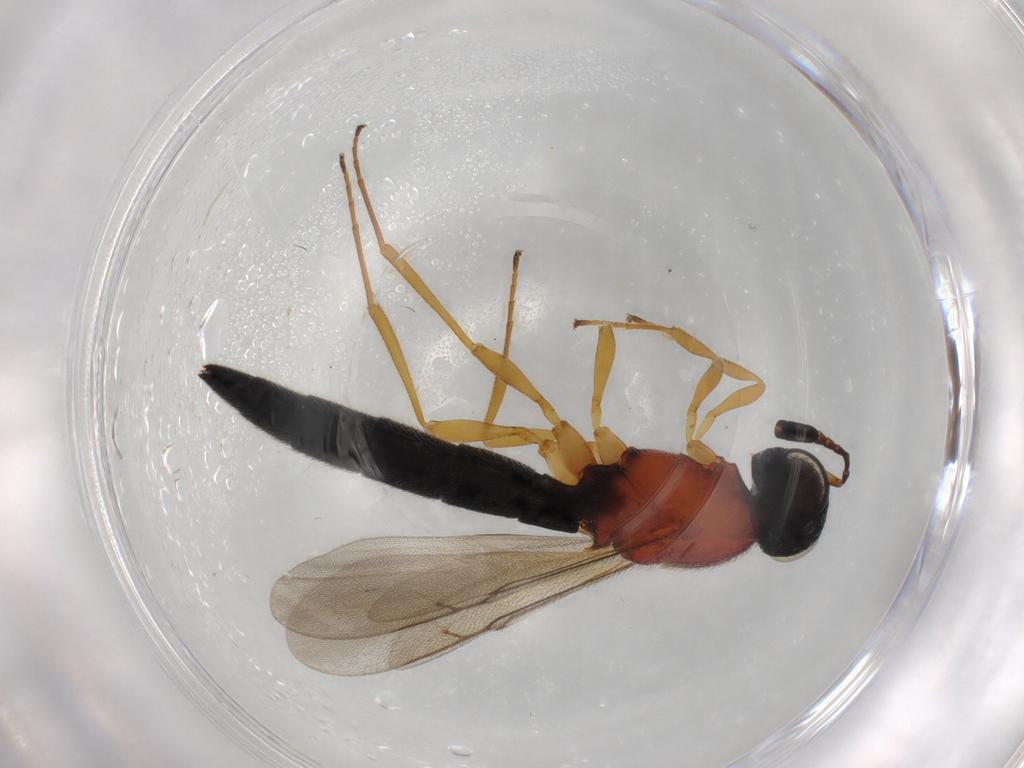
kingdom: Animalia
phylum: Arthropoda
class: Insecta
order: Hymenoptera
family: Scelionidae
